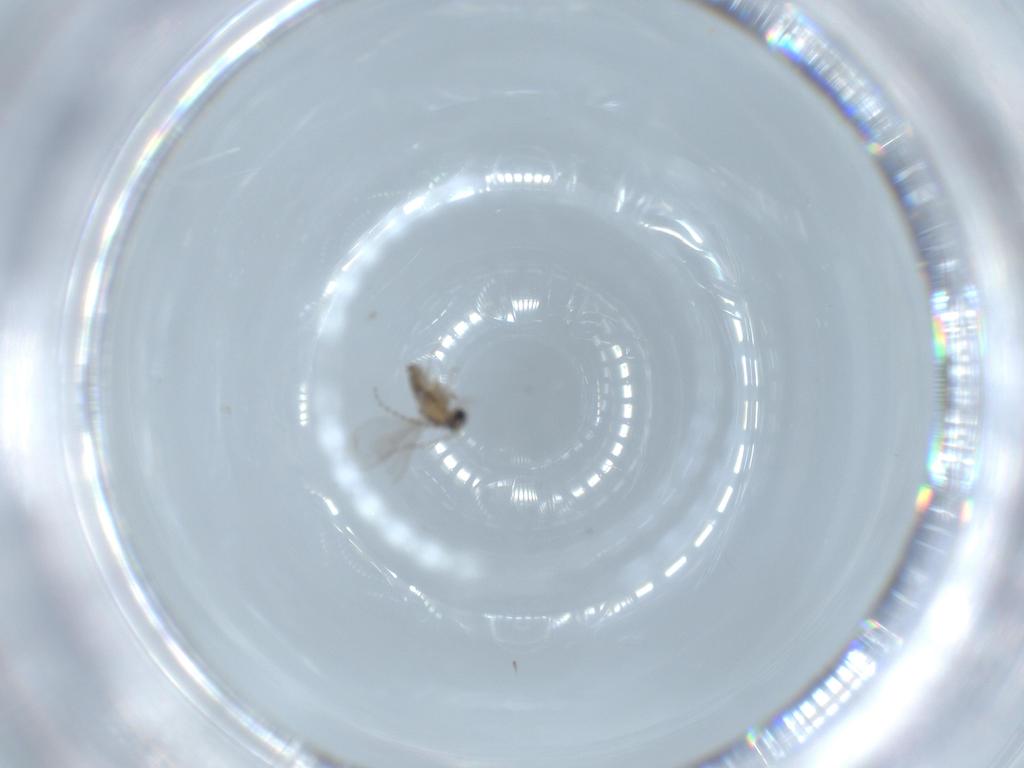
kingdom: Animalia
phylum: Arthropoda
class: Insecta
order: Diptera
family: Cecidomyiidae
